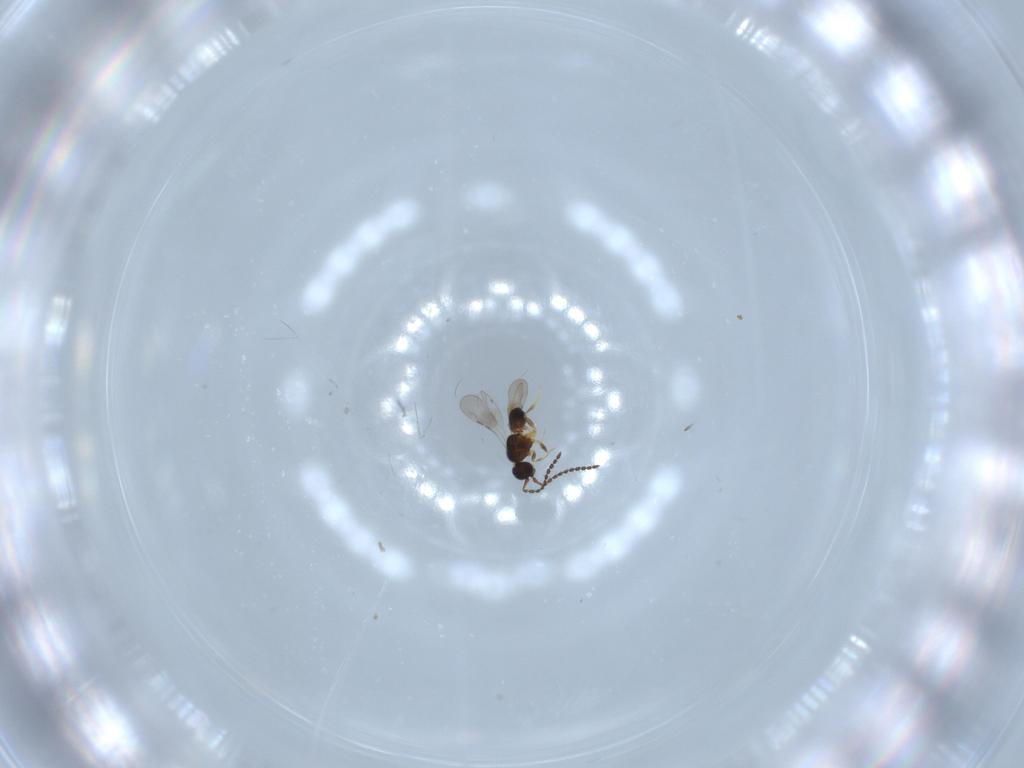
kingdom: Animalia
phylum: Arthropoda
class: Insecta
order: Hymenoptera
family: Ceraphronidae
